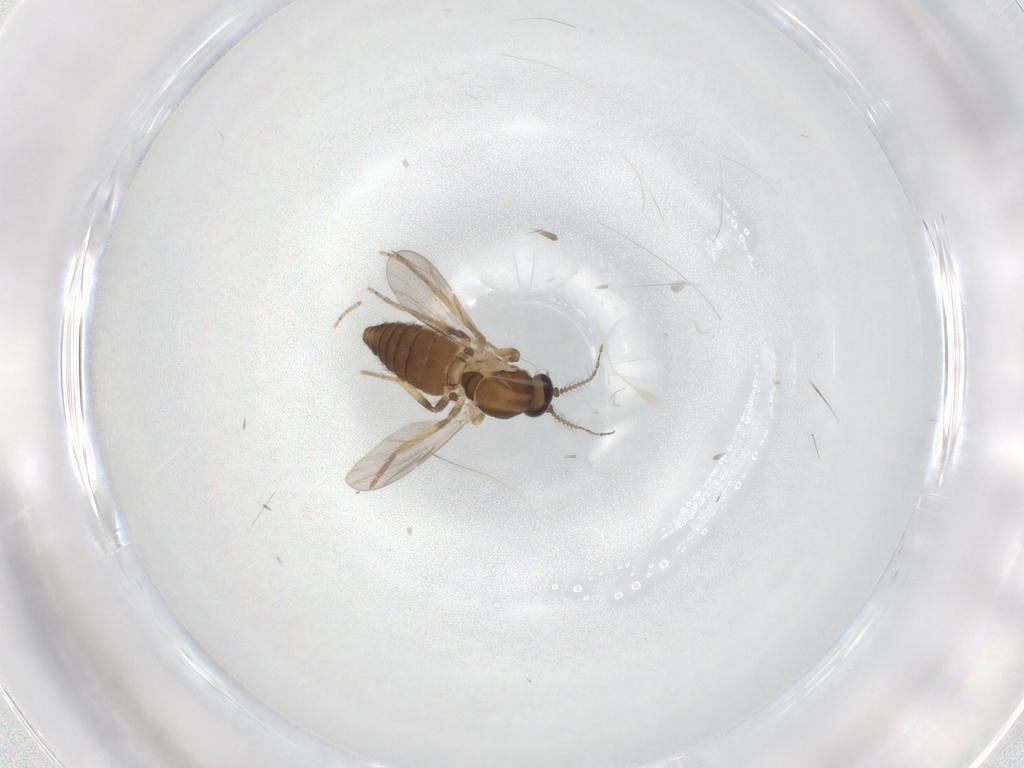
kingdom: Animalia
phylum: Arthropoda
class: Insecta
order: Diptera
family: Ceratopogonidae
